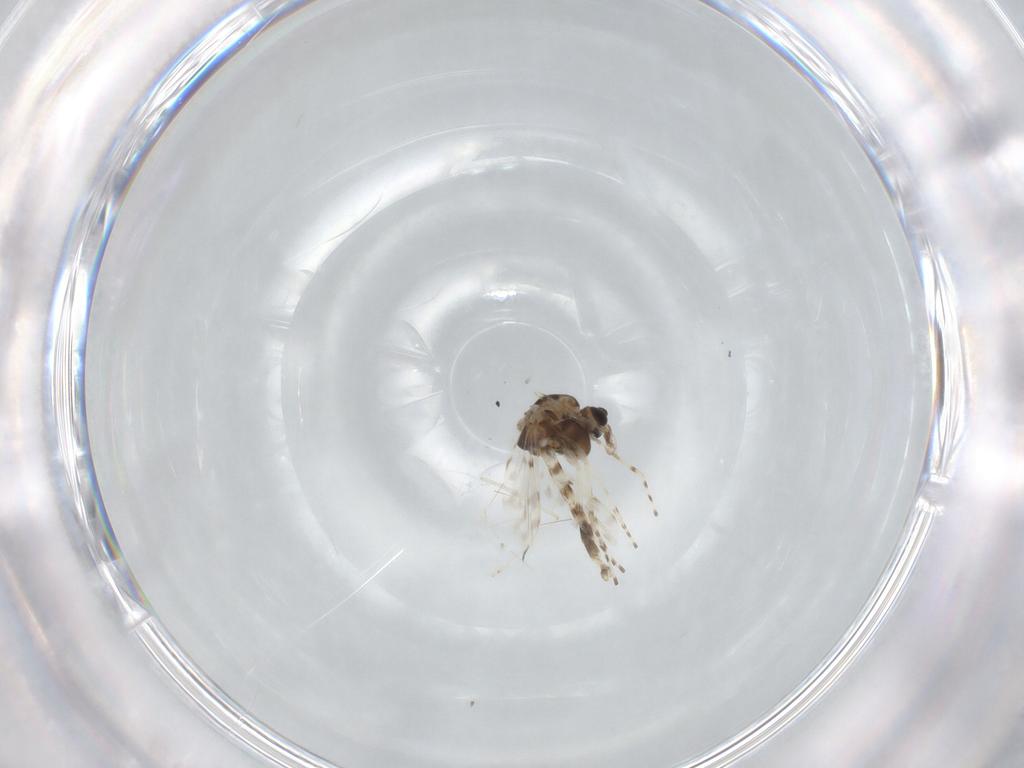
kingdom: Animalia
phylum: Arthropoda
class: Insecta
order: Diptera
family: Chironomidae
